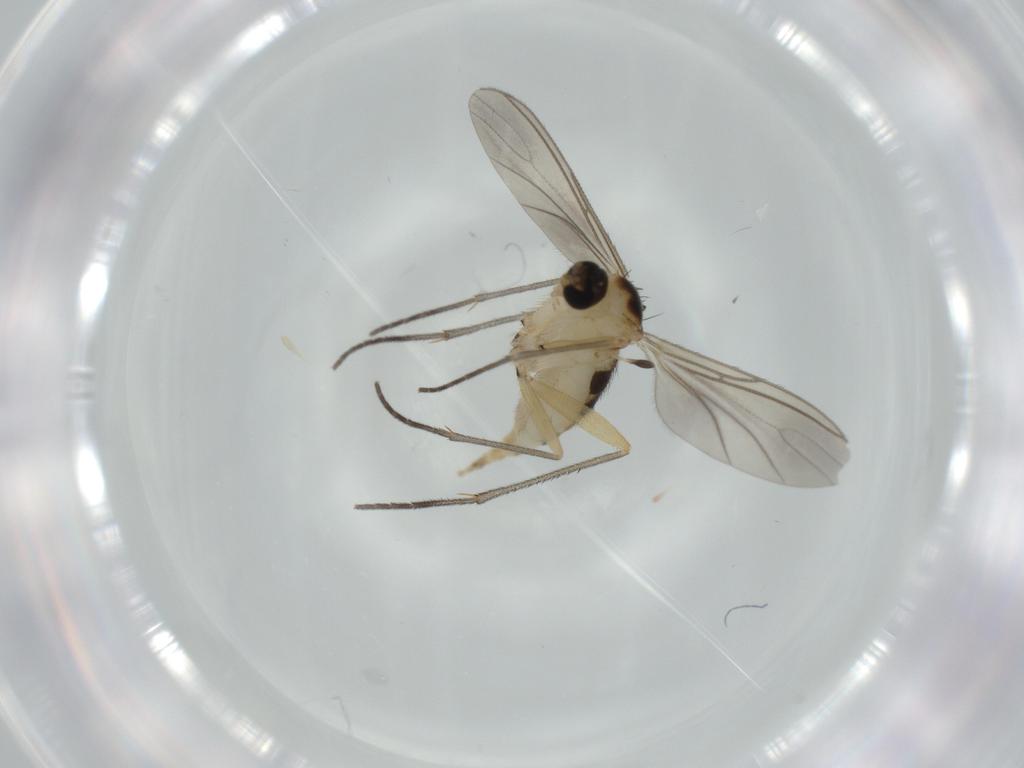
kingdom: Animalia
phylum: Arthropoda
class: Insecta
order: Diptera
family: Sciaridae
